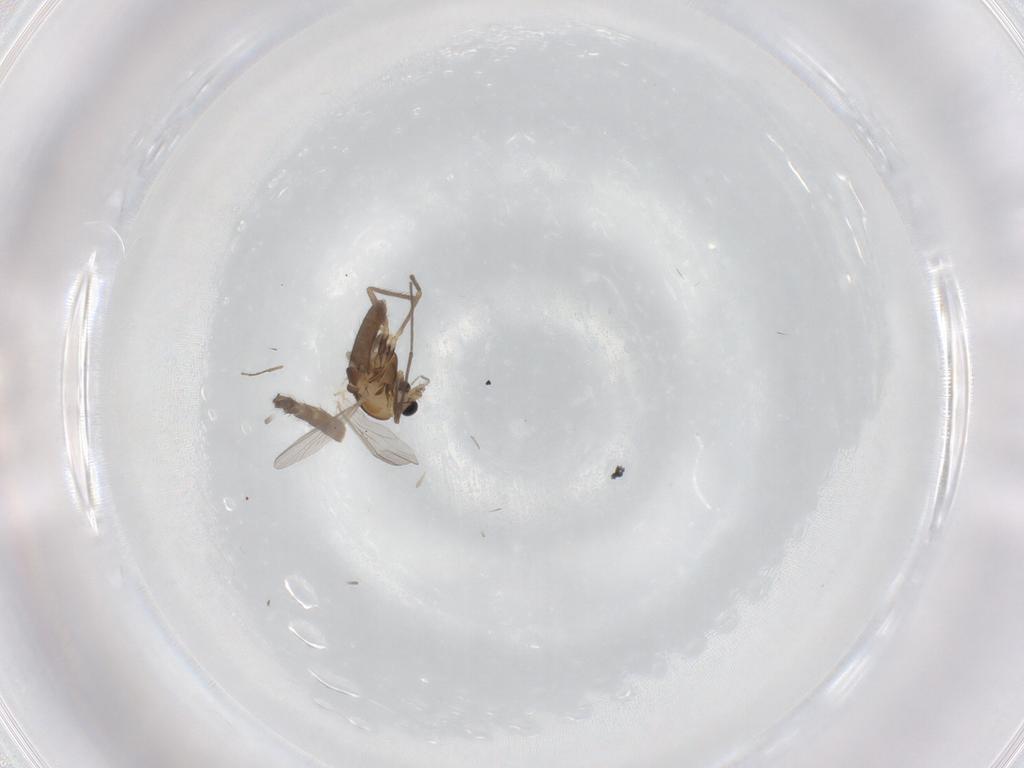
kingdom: Animalia
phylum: Arthropoda
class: Insecta
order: Diptera
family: Chironomidae
